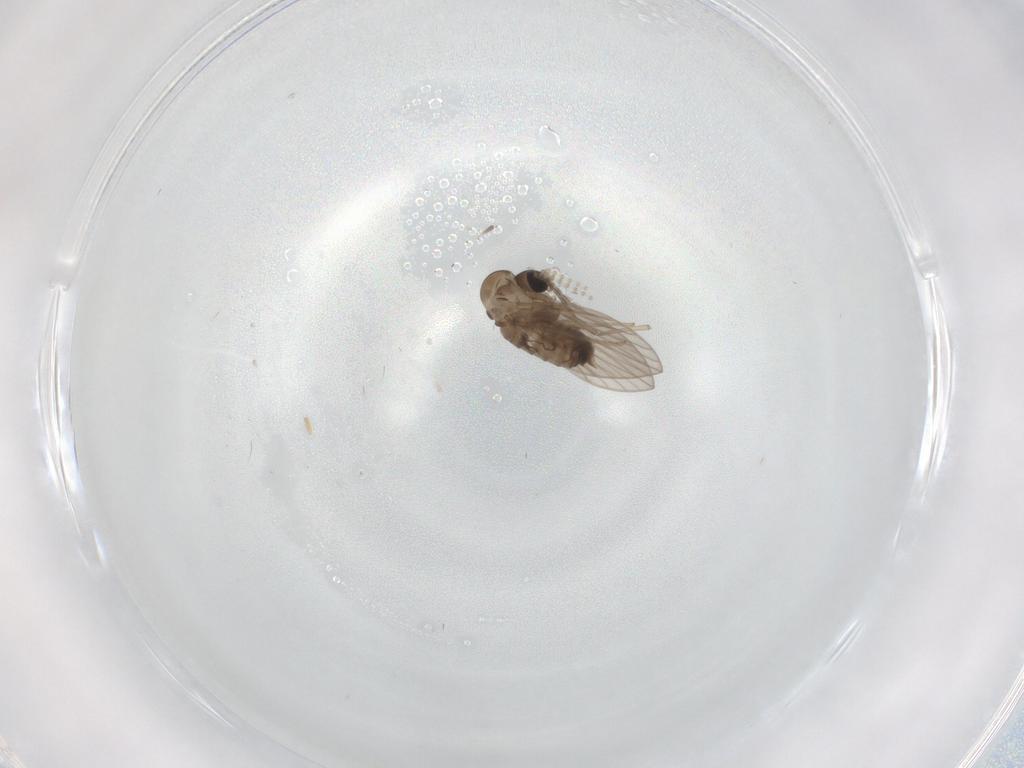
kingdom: Animalia
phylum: Arthropoda
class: Insecta
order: Diptera
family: Psychodidae
